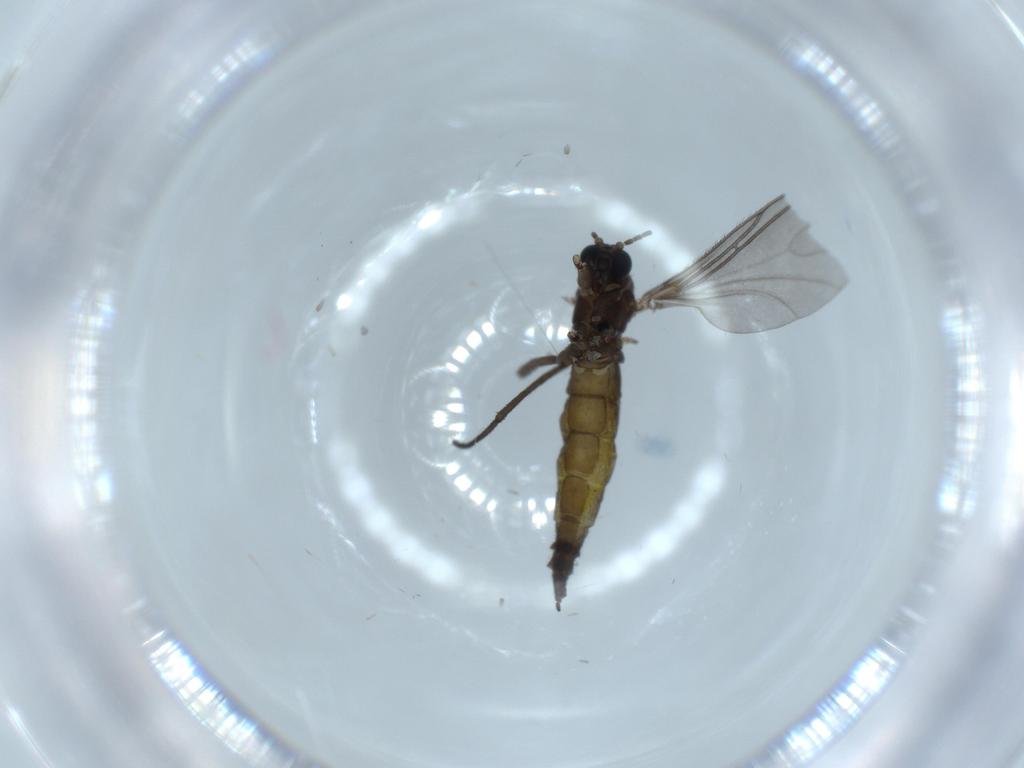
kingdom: Animalia
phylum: Arthropoda
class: Insecta
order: Diptera
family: Sciaridae
